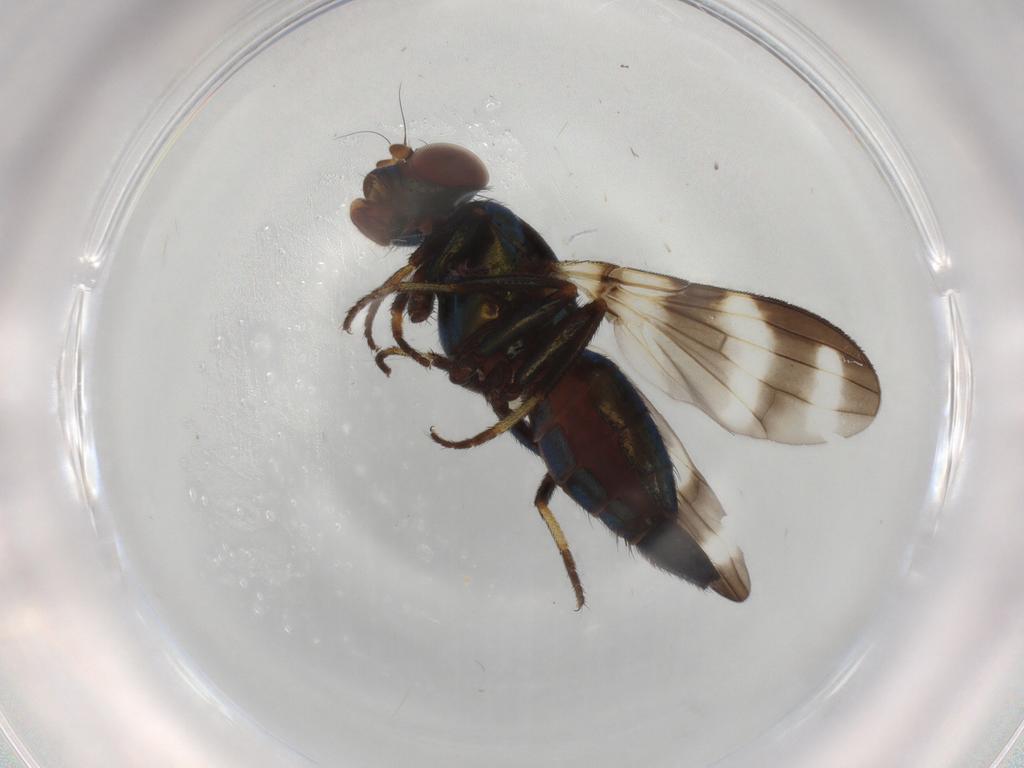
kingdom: Animalia
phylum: Arthropoda
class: Insecta
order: Diptera
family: Ulidiidae
